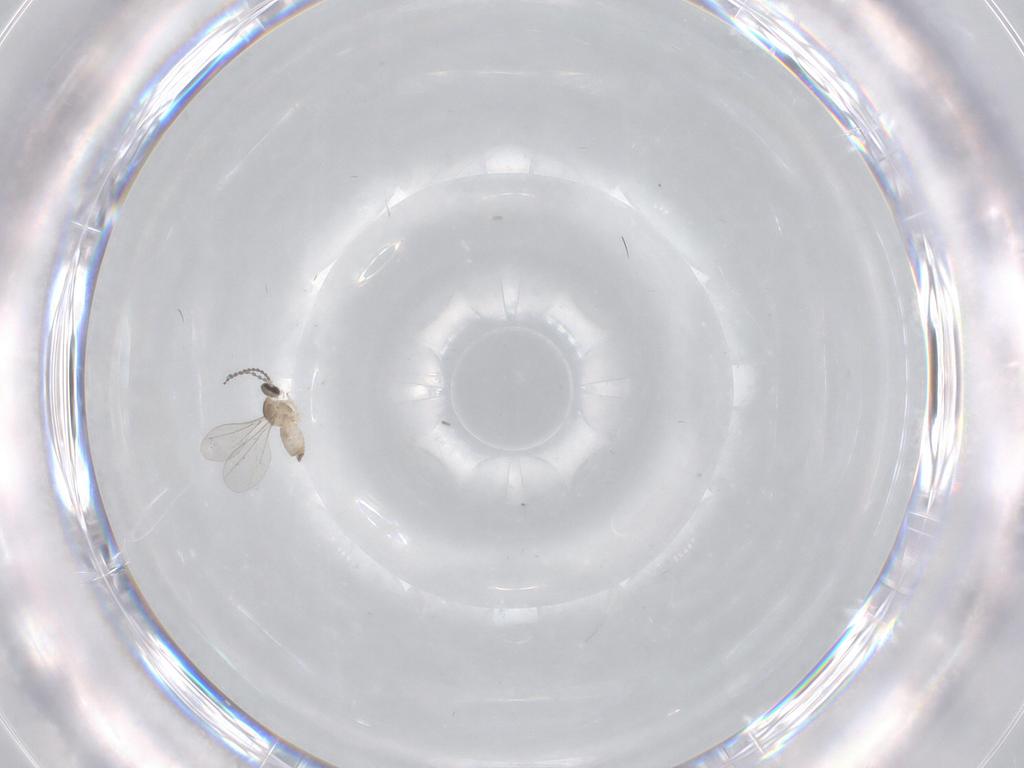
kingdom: Animalia
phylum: Arthropoda
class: Insecta
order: Diptera
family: Cecidomyiidae
